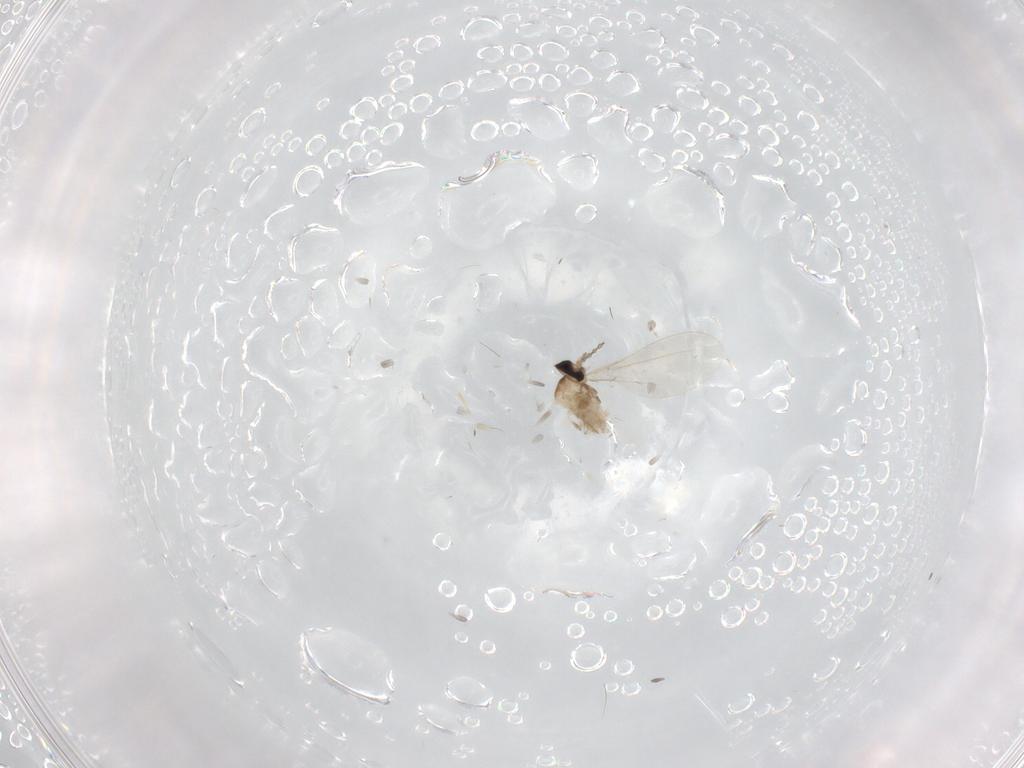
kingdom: Animalia
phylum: Arthropoda
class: Insecta
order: Diptera
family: Cecidomyiidae
